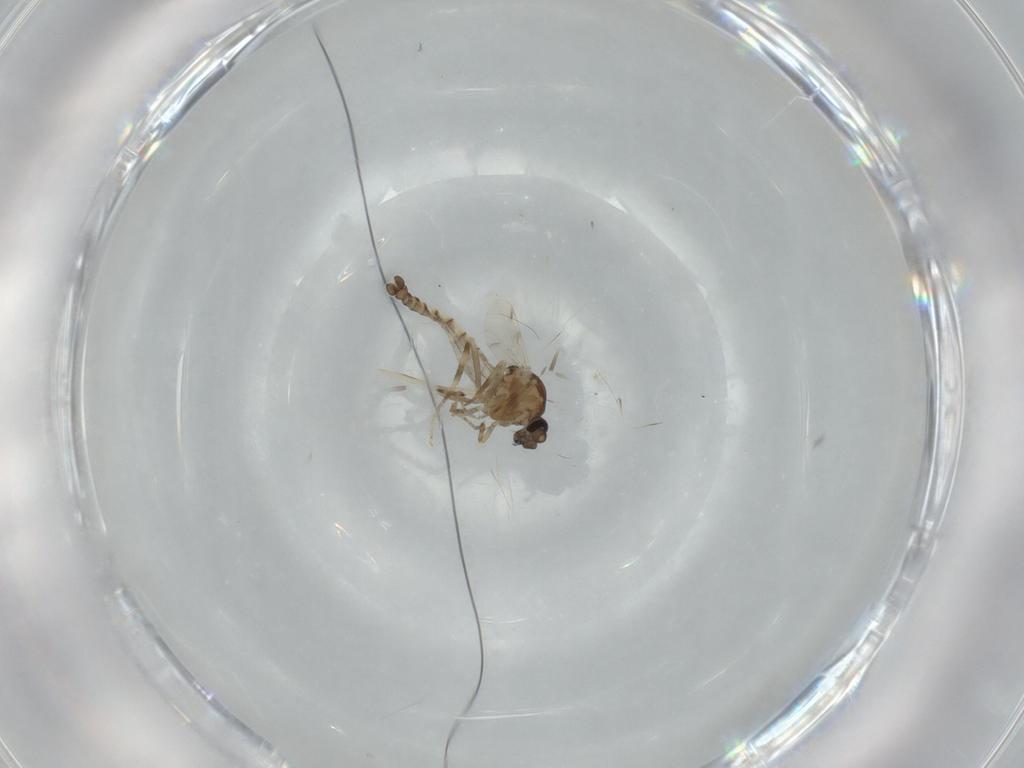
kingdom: Animalia
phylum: Arthropoda
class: Insecta
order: Diptera
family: Ceratopogonidae
